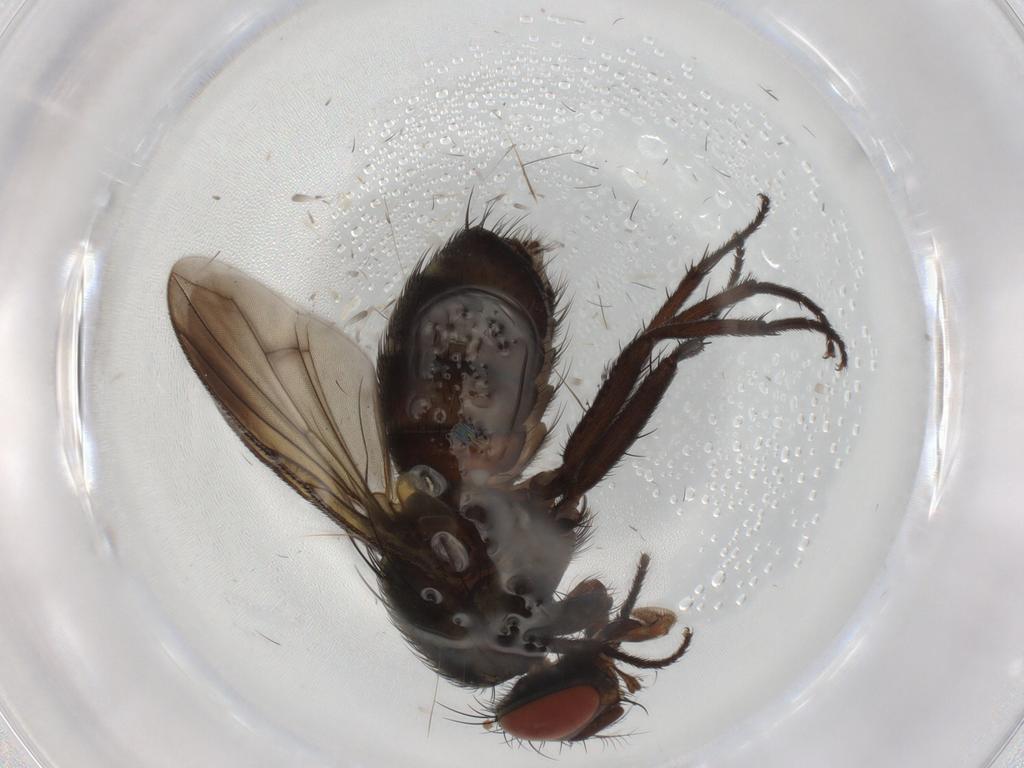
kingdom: Animalia
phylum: Arthropoda
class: Insecta
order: Diptera
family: Sarcophagidae
